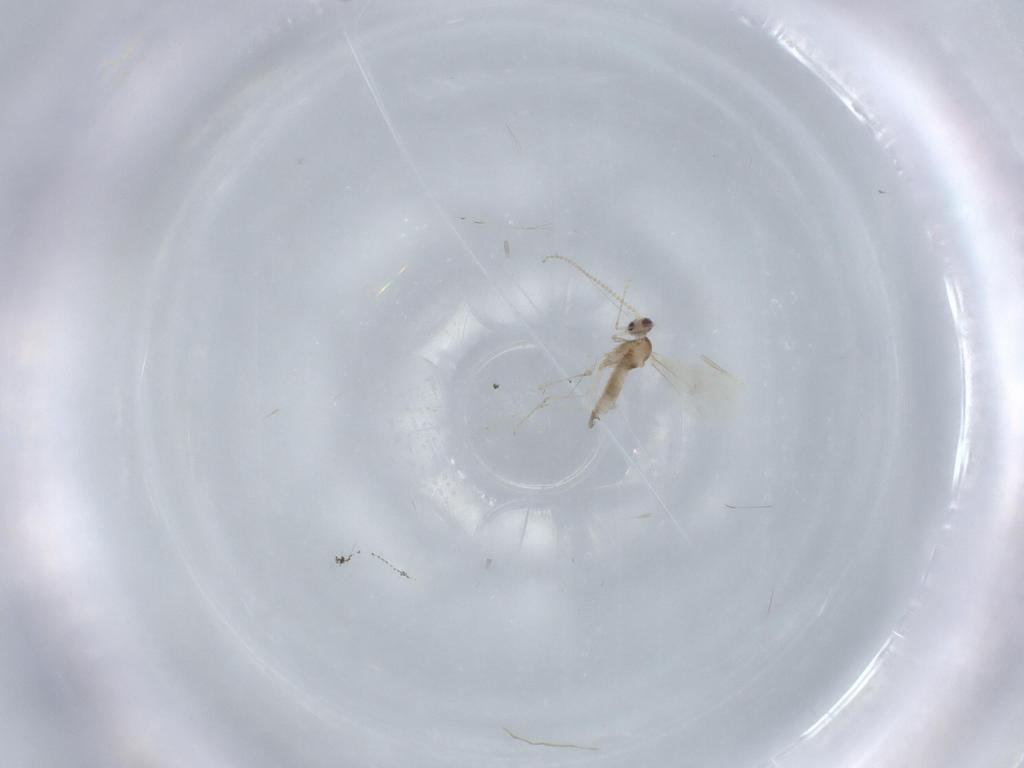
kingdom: Animalia
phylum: Arthropoda
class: Insecta
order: Diptera
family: Cecidomyiidae
